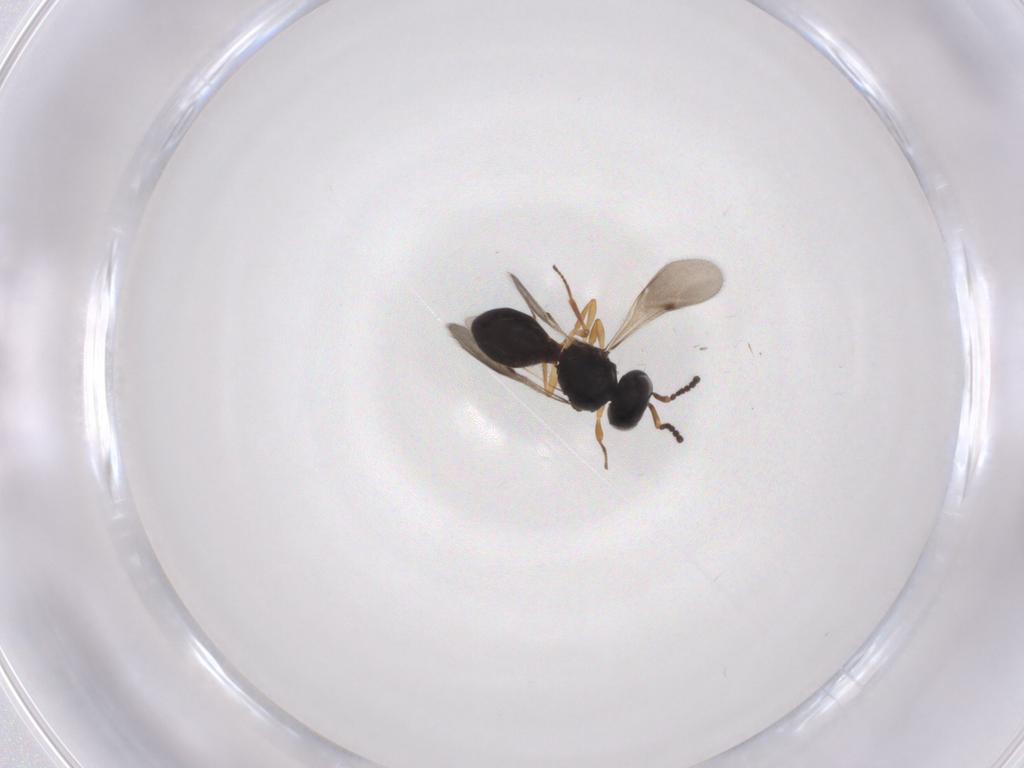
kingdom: Animalia
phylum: Arthropoda
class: Insecta
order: Hymenoptera
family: Scelionidae
